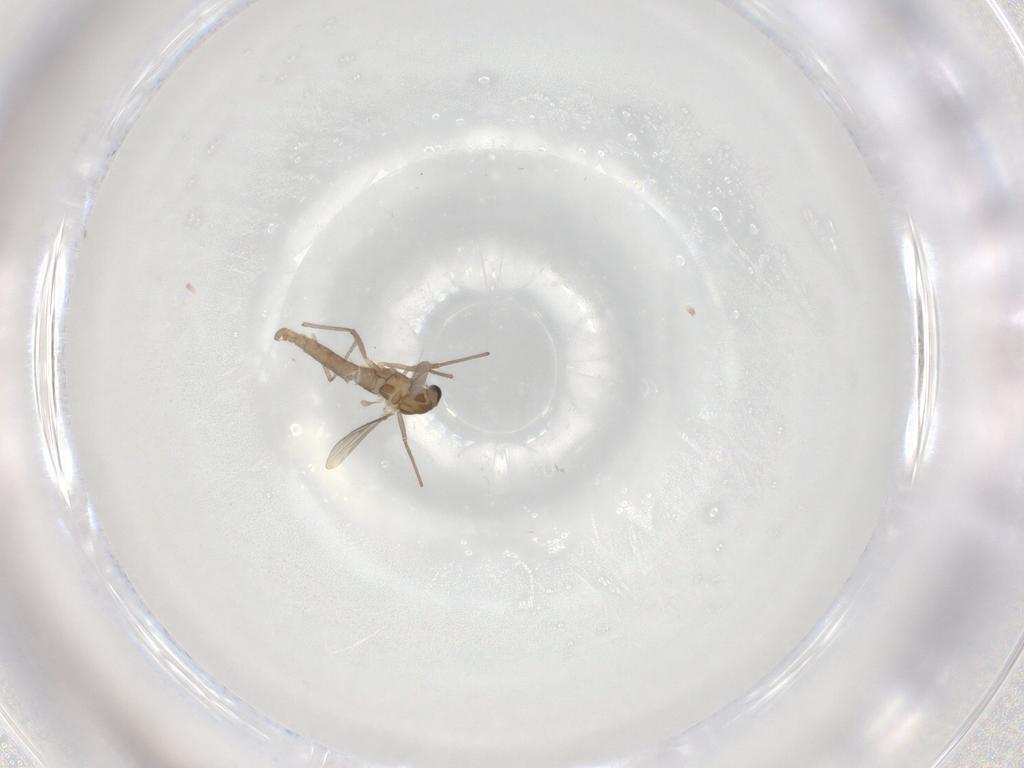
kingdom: Animalia
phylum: Arthropoda
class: Insecta
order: Diptera
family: Chironomidae
